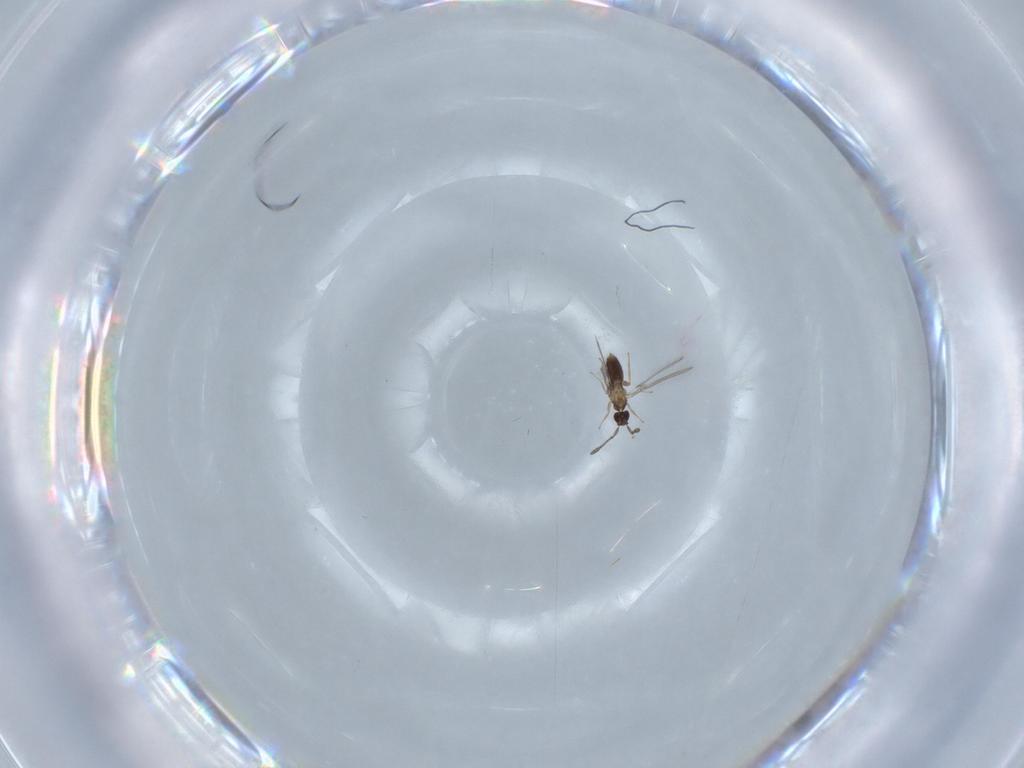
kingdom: Animalia
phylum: Arthropoda
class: Insecta
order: Hymenoptera
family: Mymaridae
